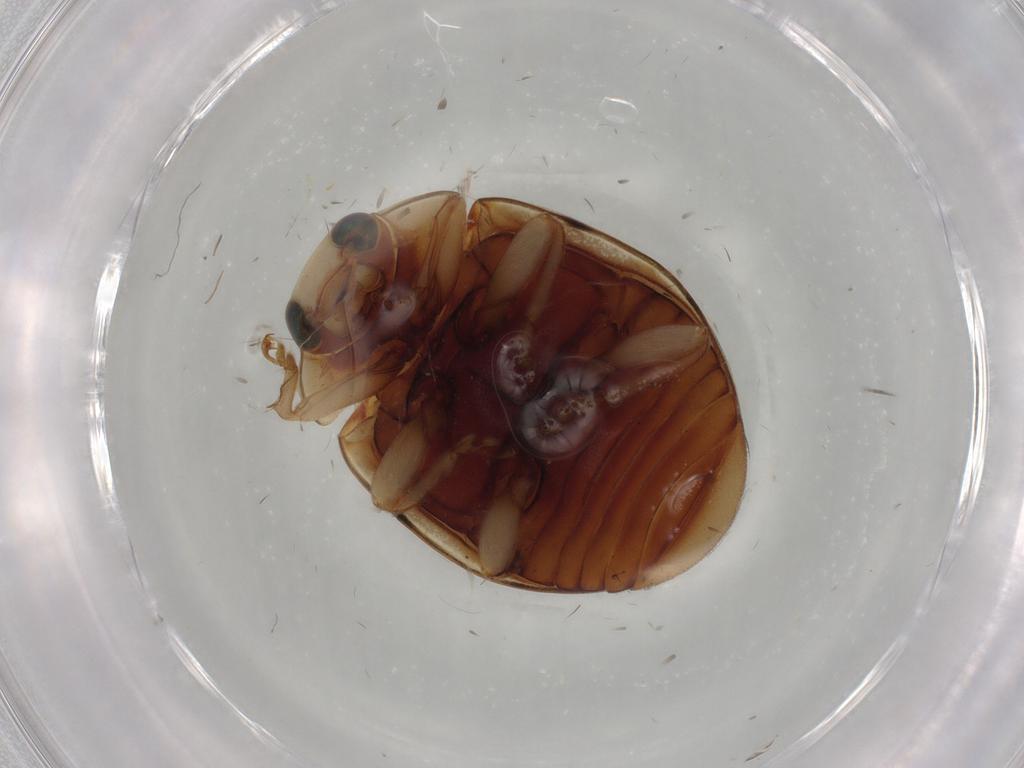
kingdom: Animalia
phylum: Arthropoda
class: Insecta
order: Coleoptera
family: Coccinellidae
